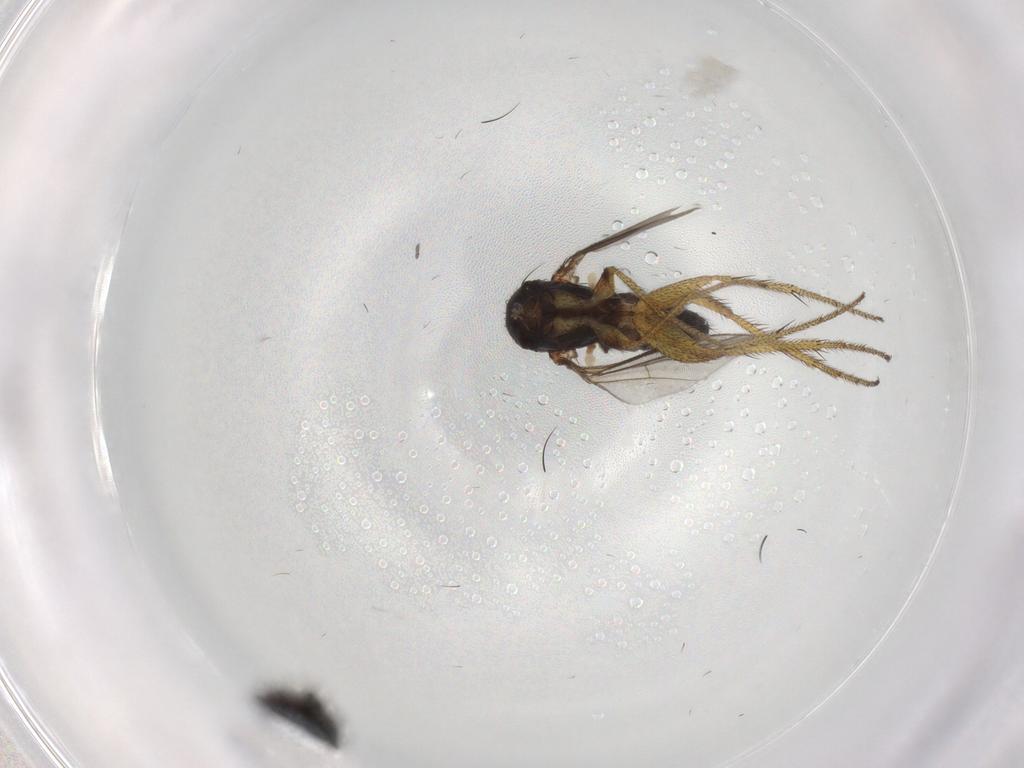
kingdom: Animalia
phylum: Arthropoda
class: Insecta
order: Diptera
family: Sciaridae
